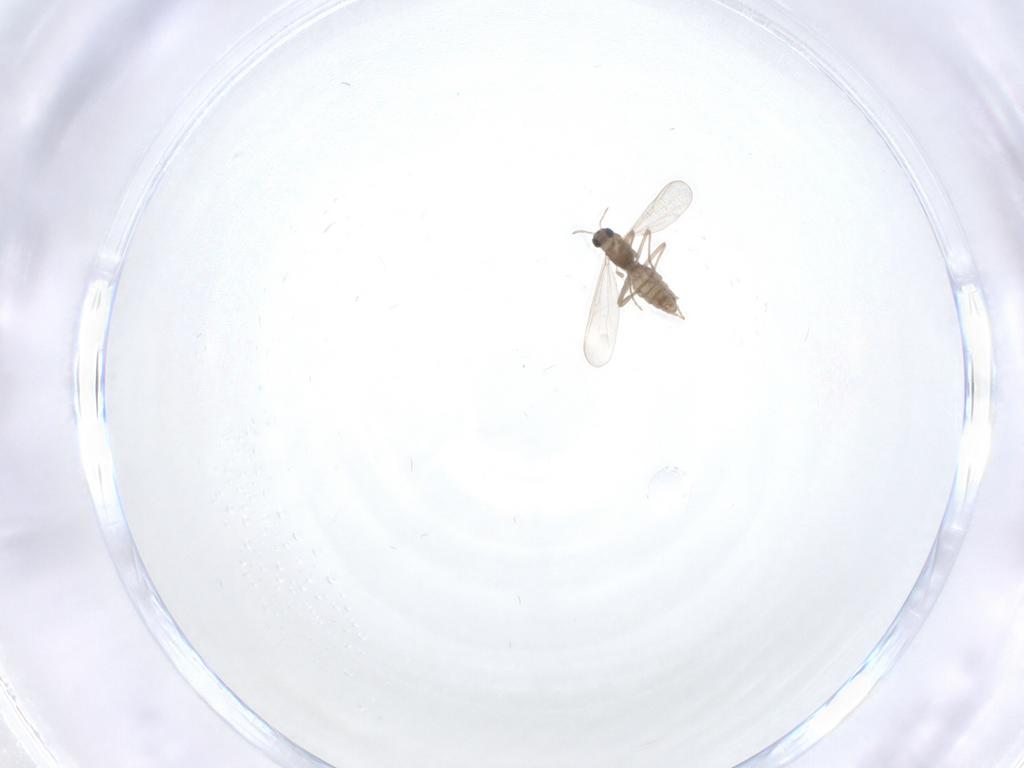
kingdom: Animalia
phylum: Arthropoda
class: Insecta
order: Diptera
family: Chironomidae
